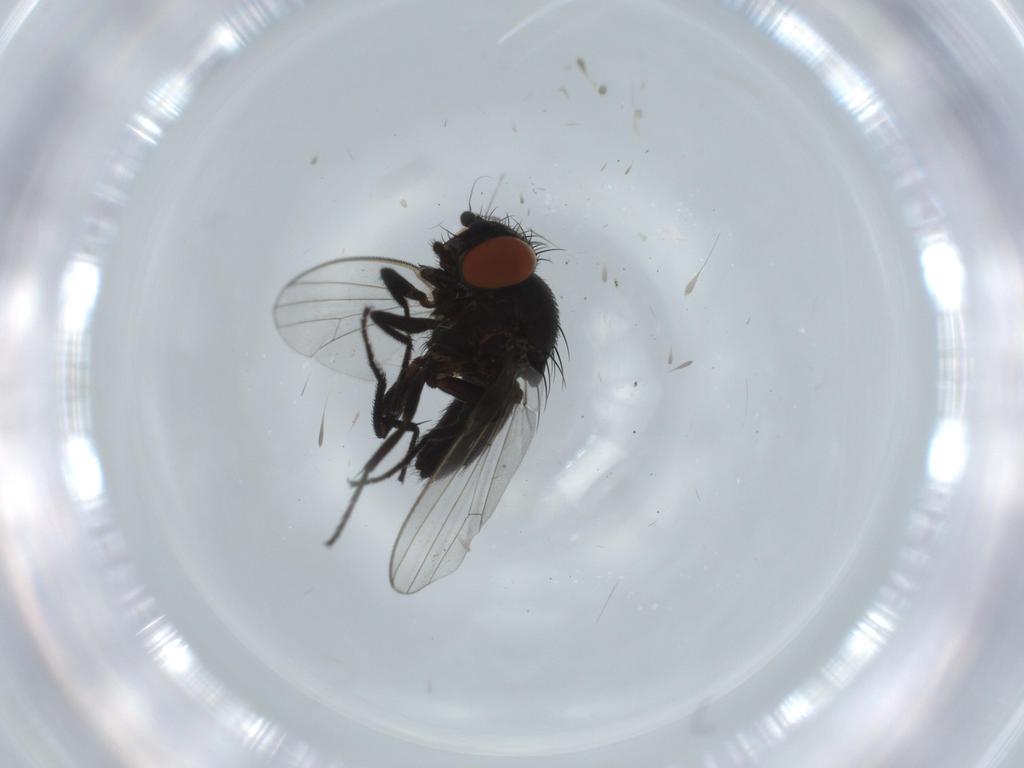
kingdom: Animalia
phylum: Arthropoda
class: Insecta
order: Diptera
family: Milichiidae
